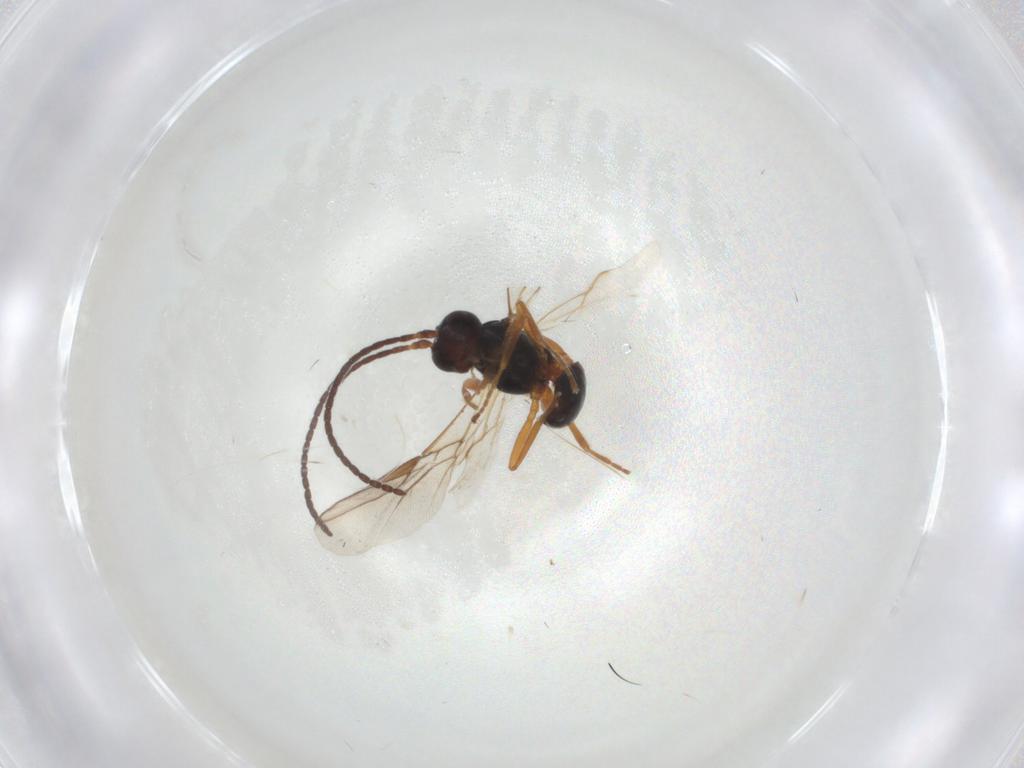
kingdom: Animalia
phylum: Arthropoda
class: Insecta
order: Hymenoptera
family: Braconidae
